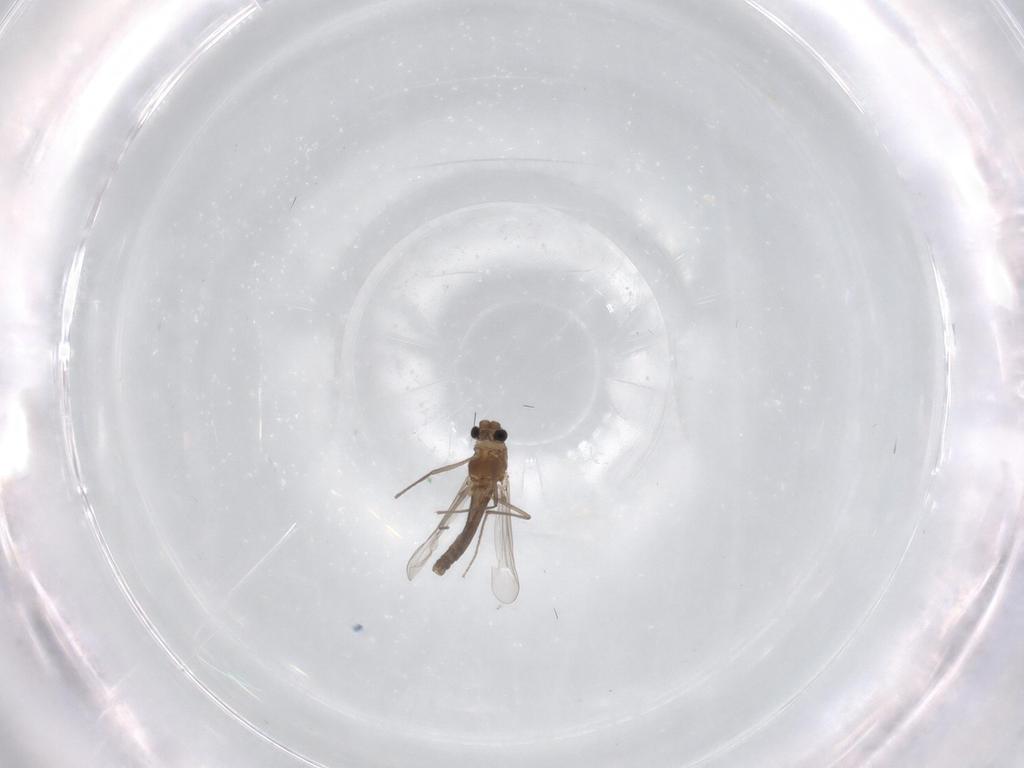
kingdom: Animalia
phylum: Arthropoda
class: Insecta
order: Diptera
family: Chironomidae
